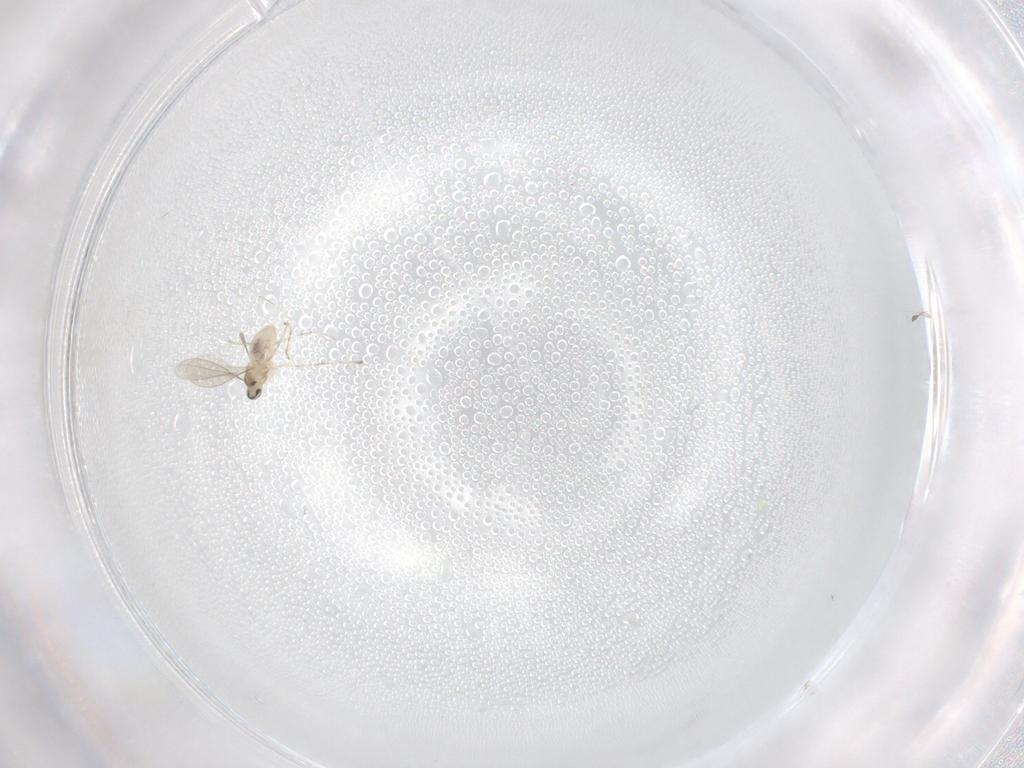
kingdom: Animalia
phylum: Arthropoda
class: Insecta
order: Diptera
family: Cecidomyiidae
